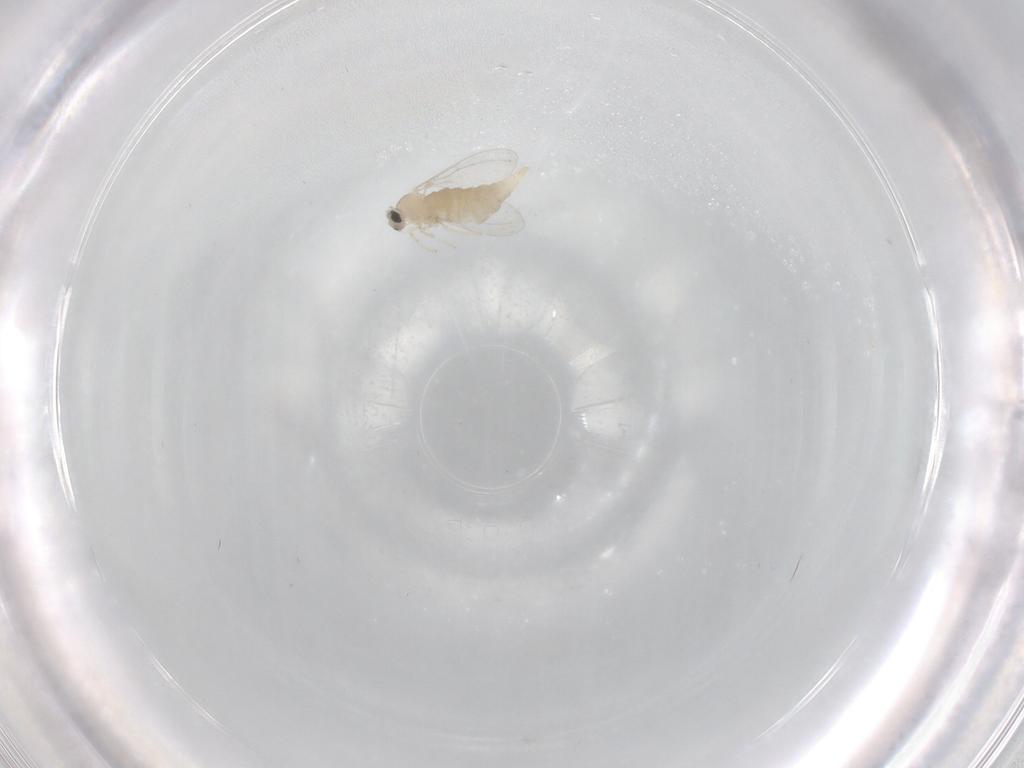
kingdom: Animalia
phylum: Arthropoda
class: Insecta
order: Diptera
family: Cecidomyiidae
